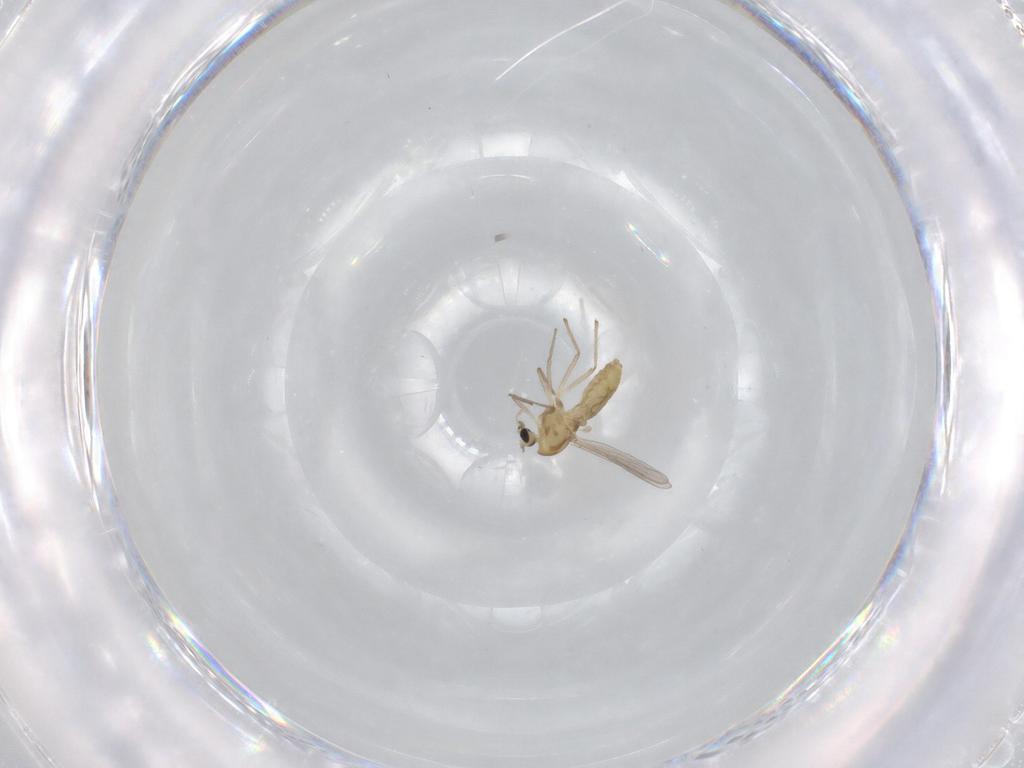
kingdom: Animalia
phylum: Arthropoda
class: Insecta
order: Diptera
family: Chironomidae
